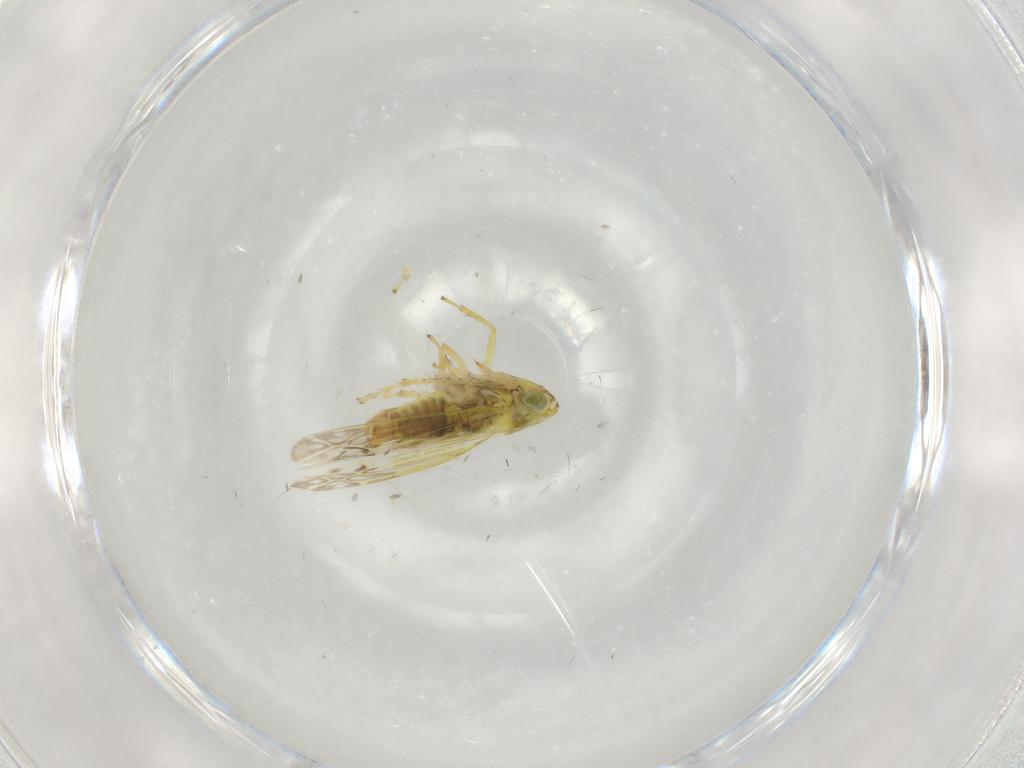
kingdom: Animalia
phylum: Arthropoda
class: Insecta
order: Hemiptera
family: Cicadellidae
